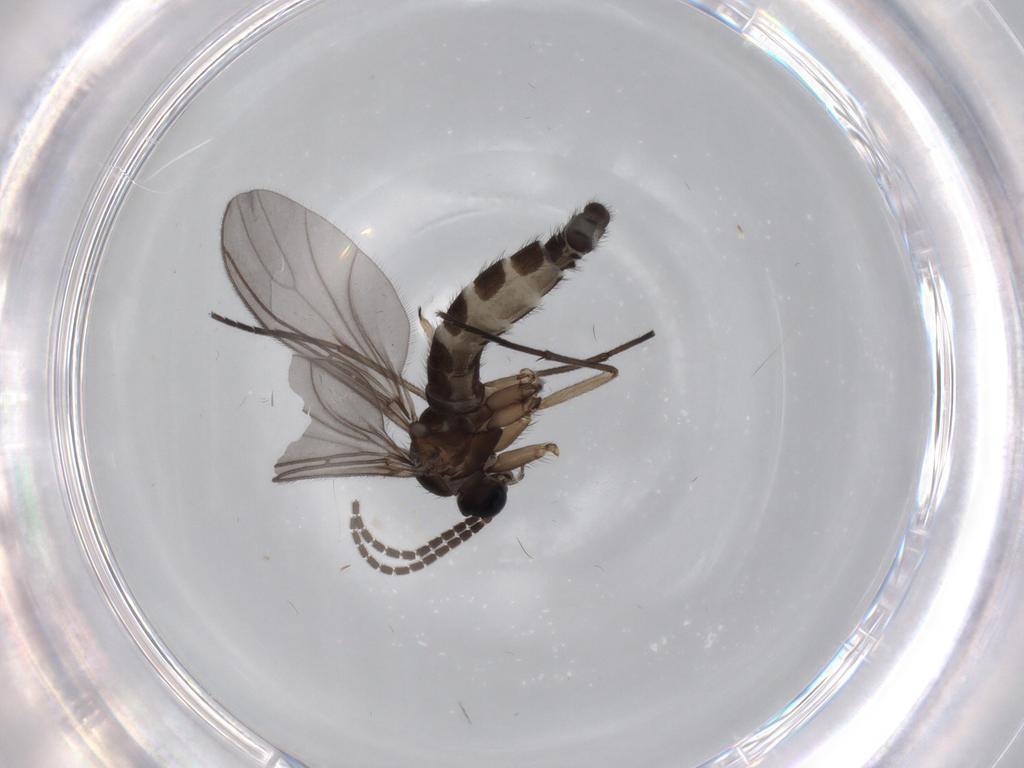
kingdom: Animalia
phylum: Arthropoda
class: Insecta
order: Diptera
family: Sciaridae
